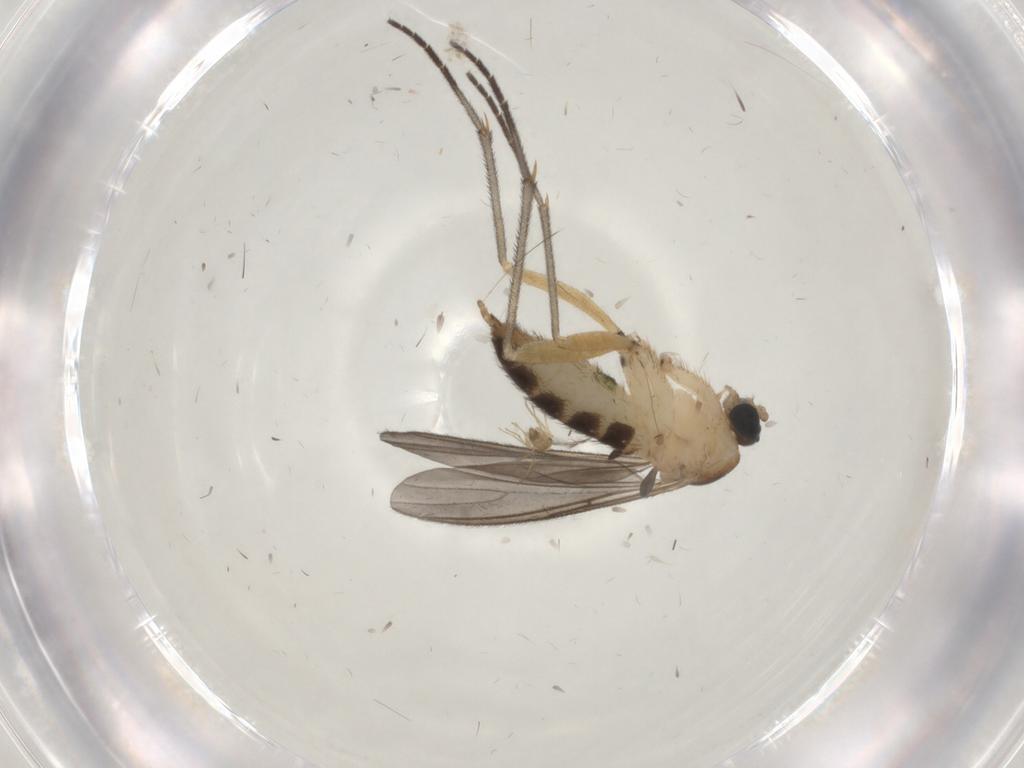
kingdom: Animalia
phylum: Arthropoda
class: Insecta
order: Diptera
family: Sciaridae
